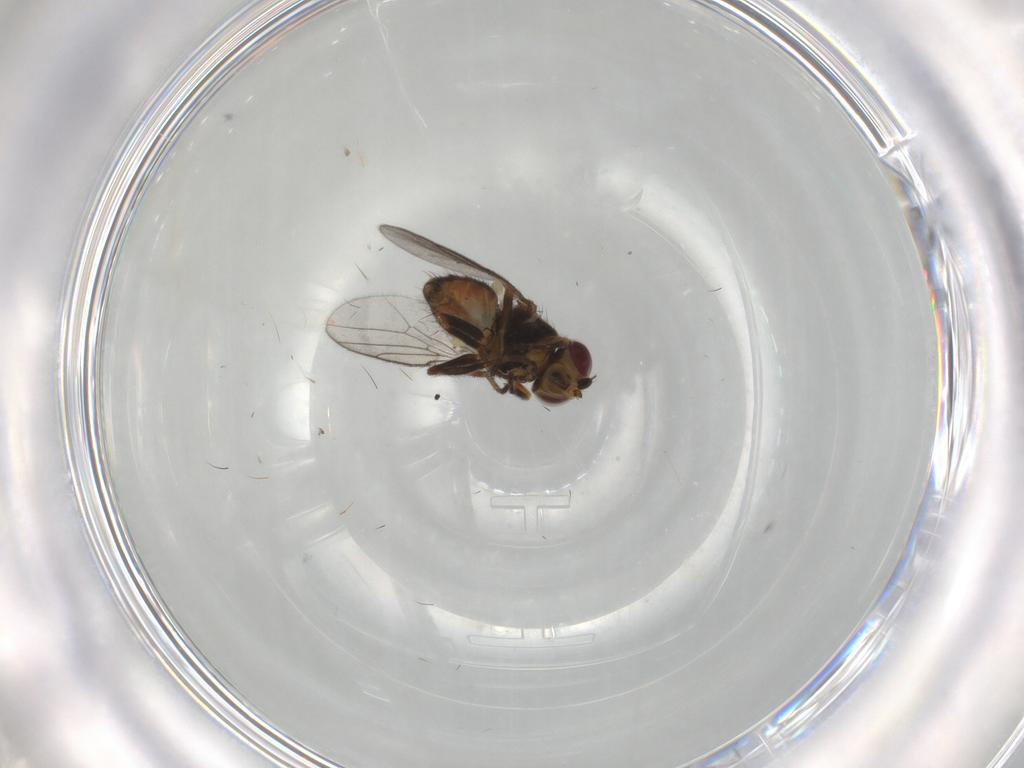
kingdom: Animalia
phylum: Arthropoda
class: Insecta
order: Diptera
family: Chloropidae
